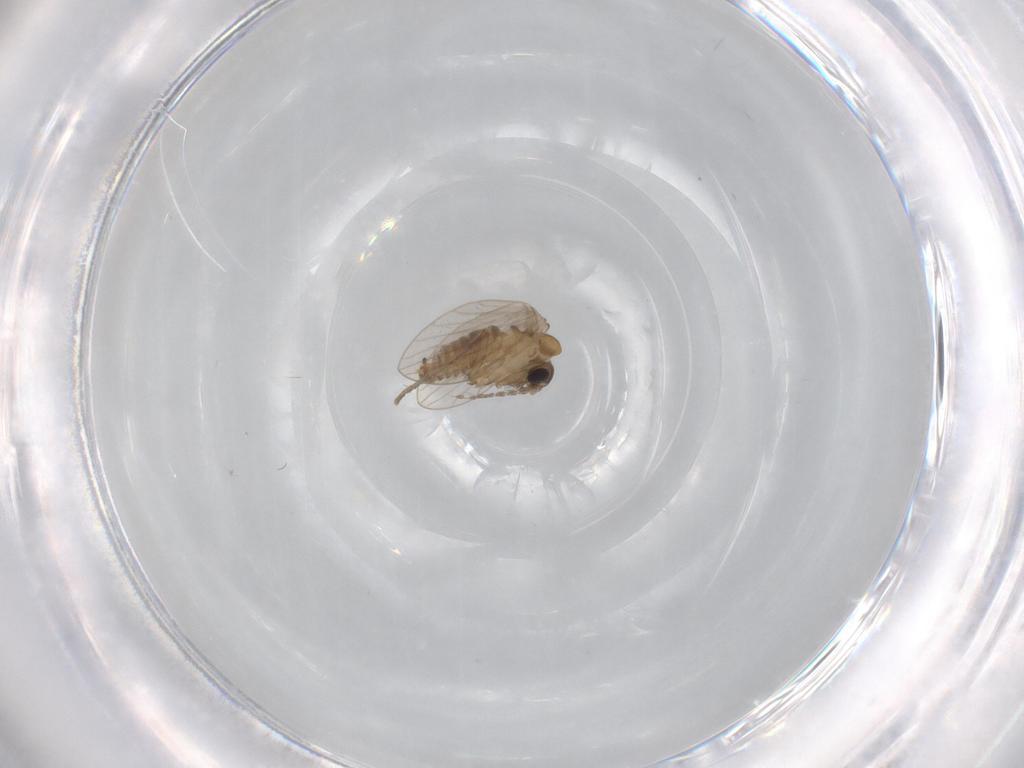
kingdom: Animalia
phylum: Arthropoda
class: Insecta
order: Diptera
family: Psychodidae
